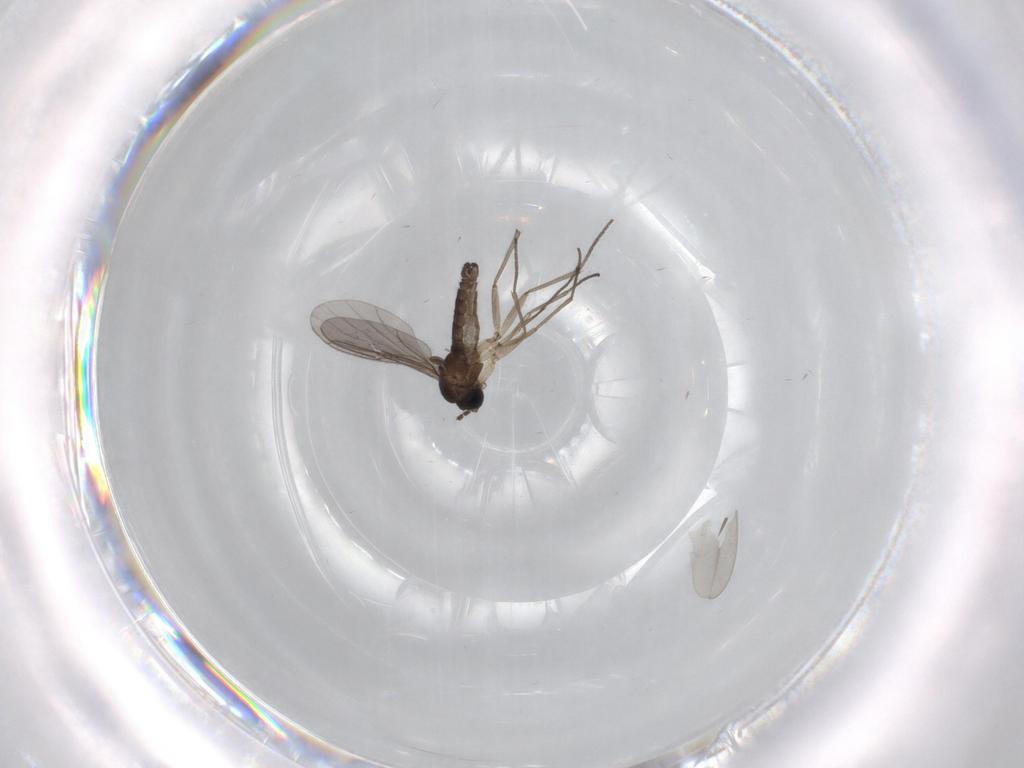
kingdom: Animalia
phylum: Arthropoda
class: Insecta
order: Diptera
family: Sciaridae
